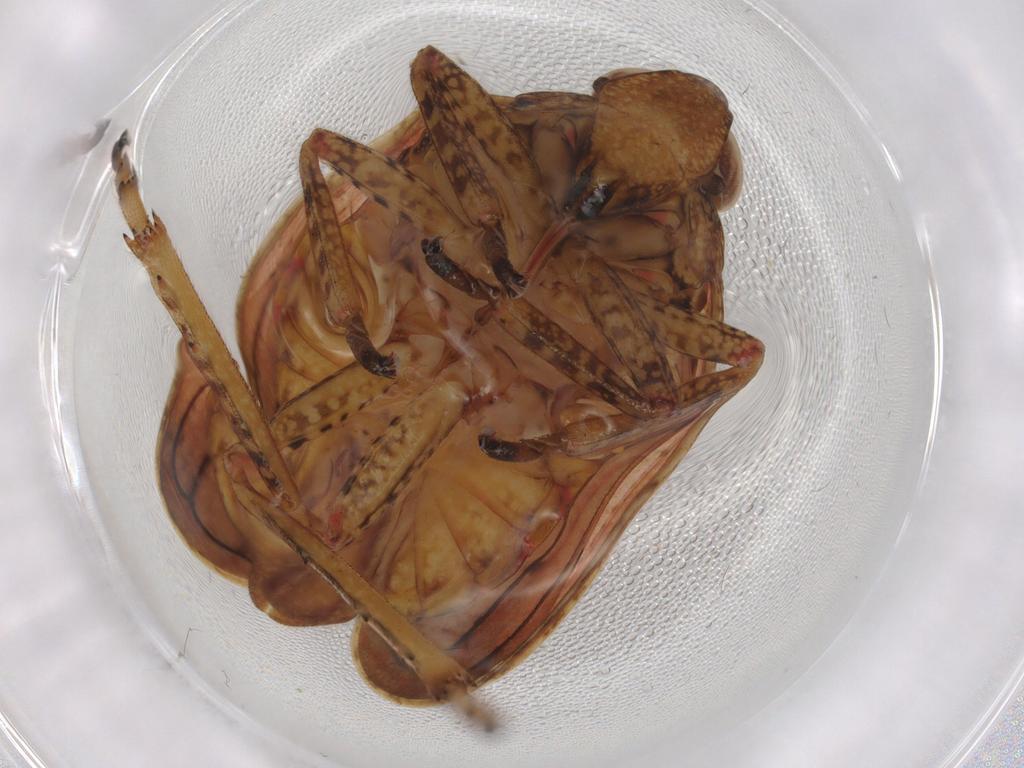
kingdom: Animalia
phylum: Arthropoda
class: Insecta
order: Hemiptera
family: Tropiduchidae
